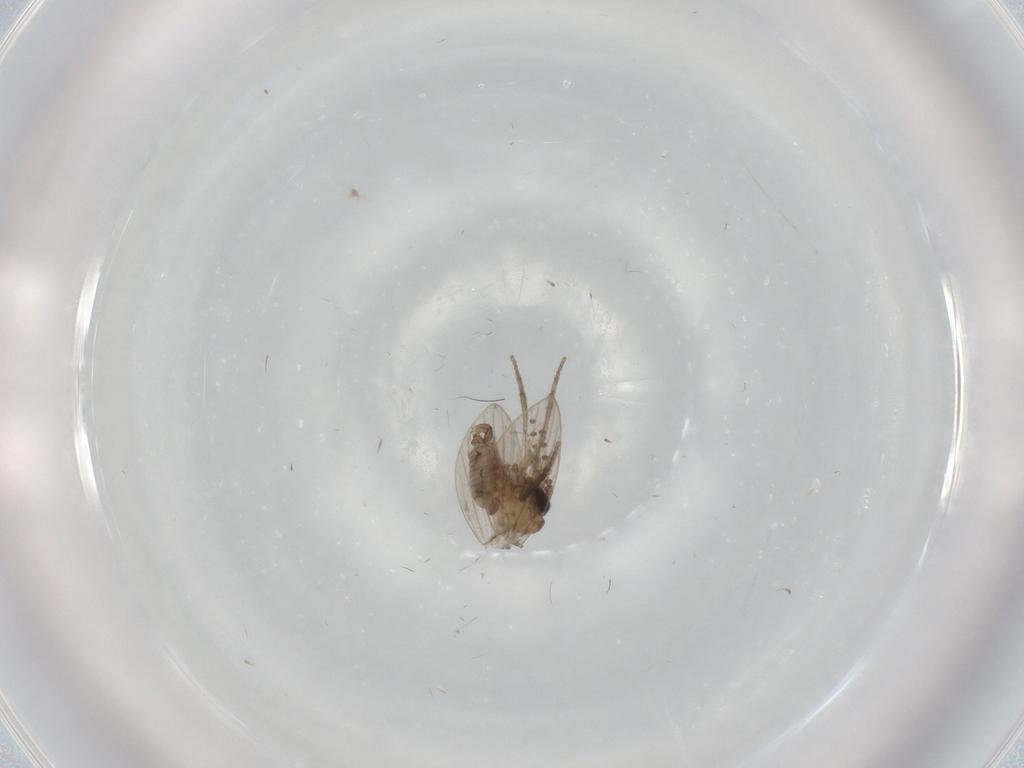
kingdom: Animalia
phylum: Arthropoda
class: Insecta
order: Diptera
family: Psychodidae
